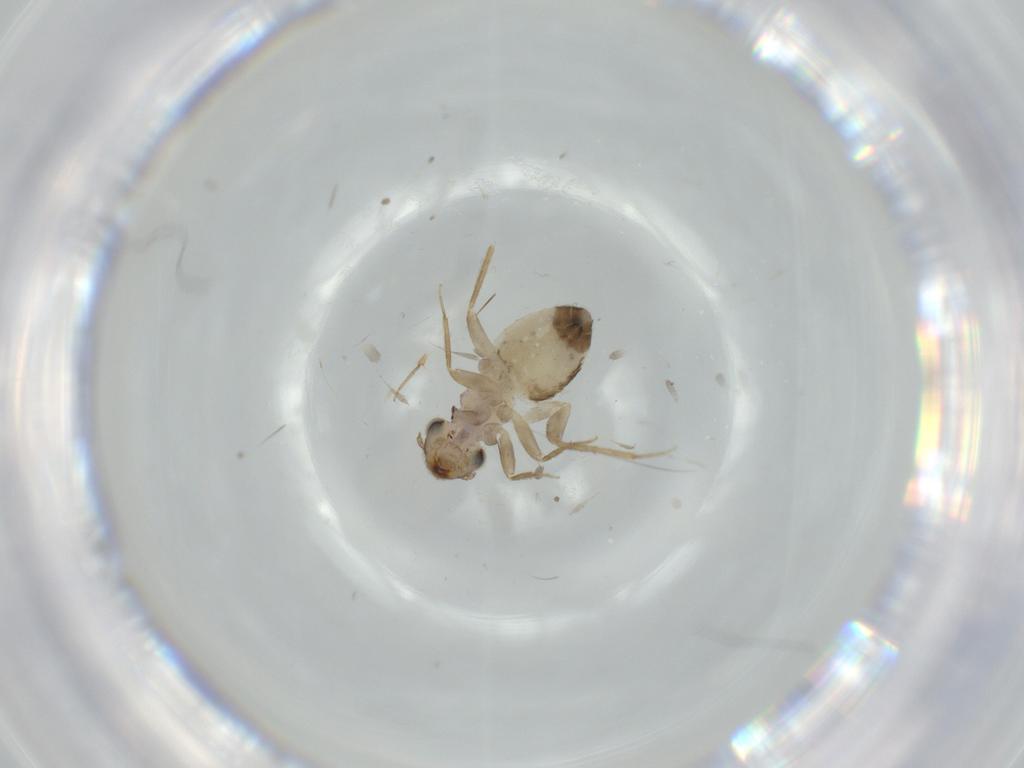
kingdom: Animalia
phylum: Arthropoda
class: Insecta
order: Psocodea
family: Lepidopsocidae
